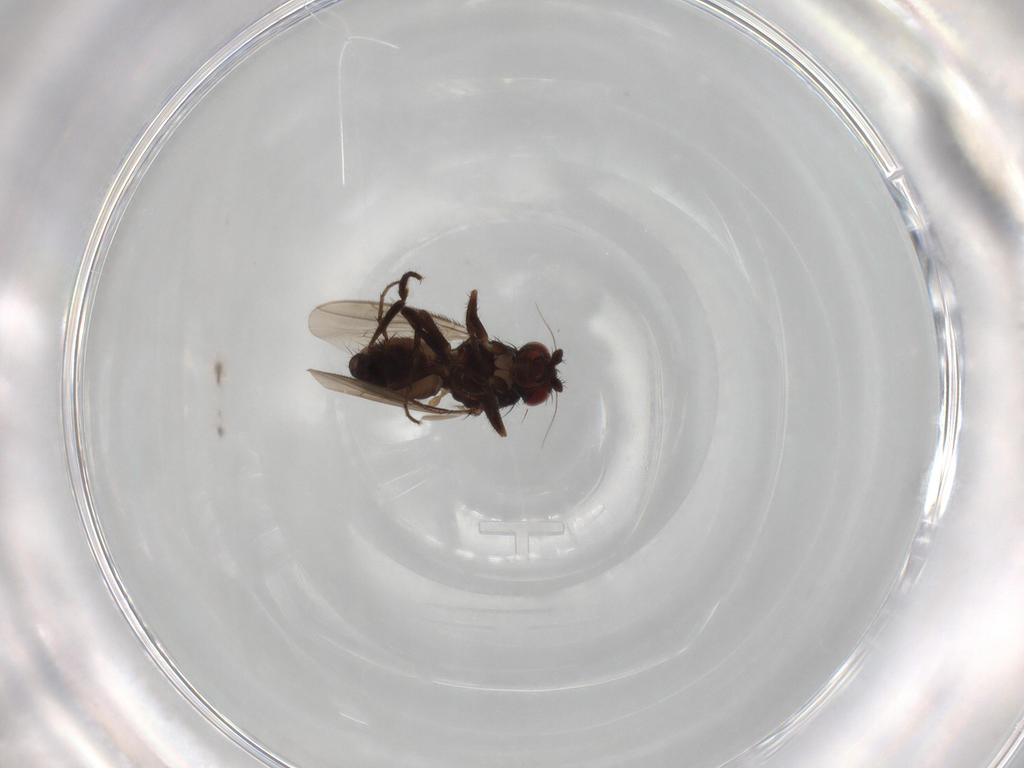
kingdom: Animalia
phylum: Arthropoda
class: Insecta
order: Diptera
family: Sphaeroceridae
